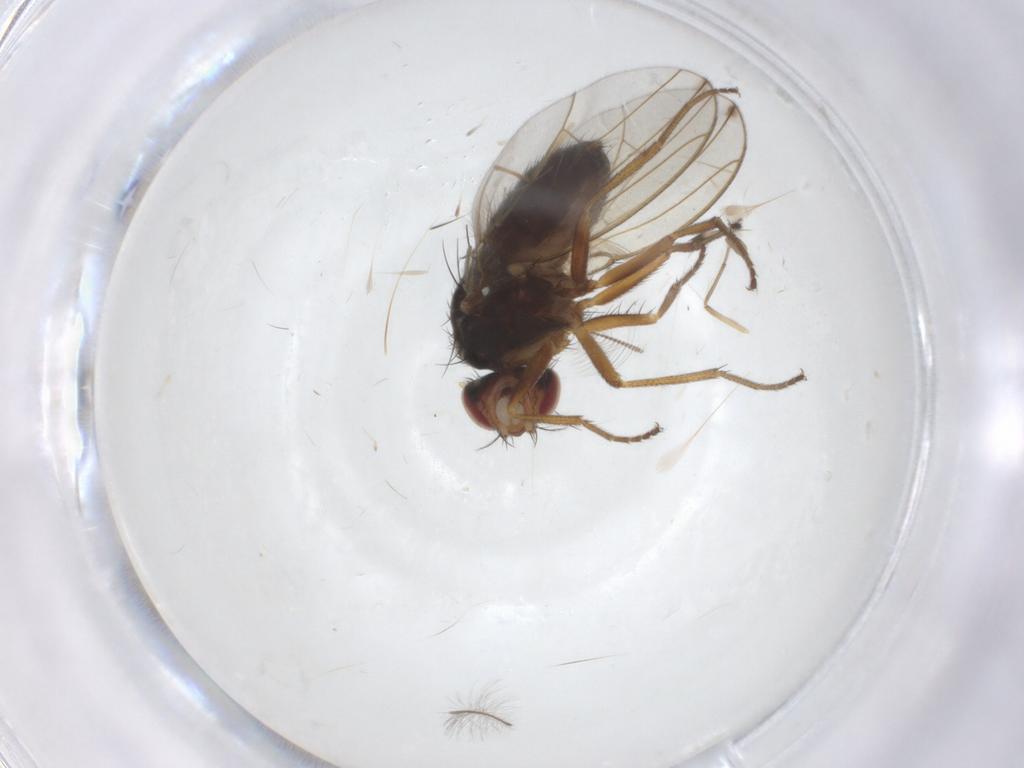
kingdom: Animalia
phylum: Arthropoda
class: Insecta
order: Diptera
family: Drosophilidae
